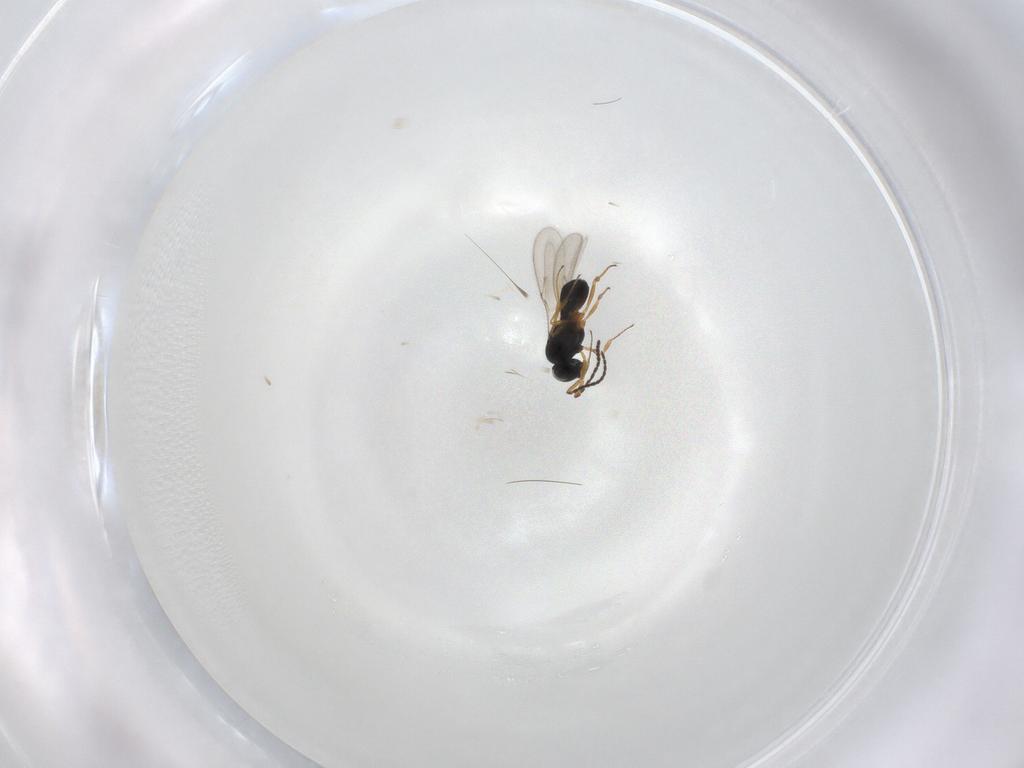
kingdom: Animalia
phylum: Arthropoda
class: Insecta
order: Hymenoptera
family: Scelionidae
